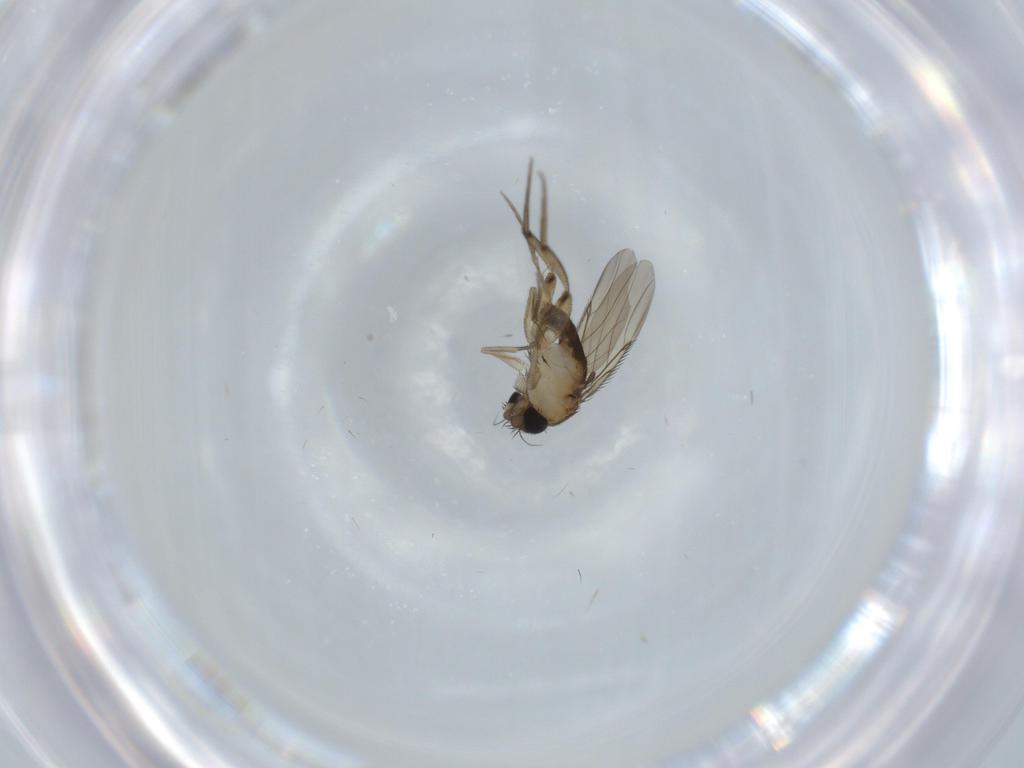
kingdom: Animalia
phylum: Arthropoda
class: Insecta
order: Diptera
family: Phoridae
